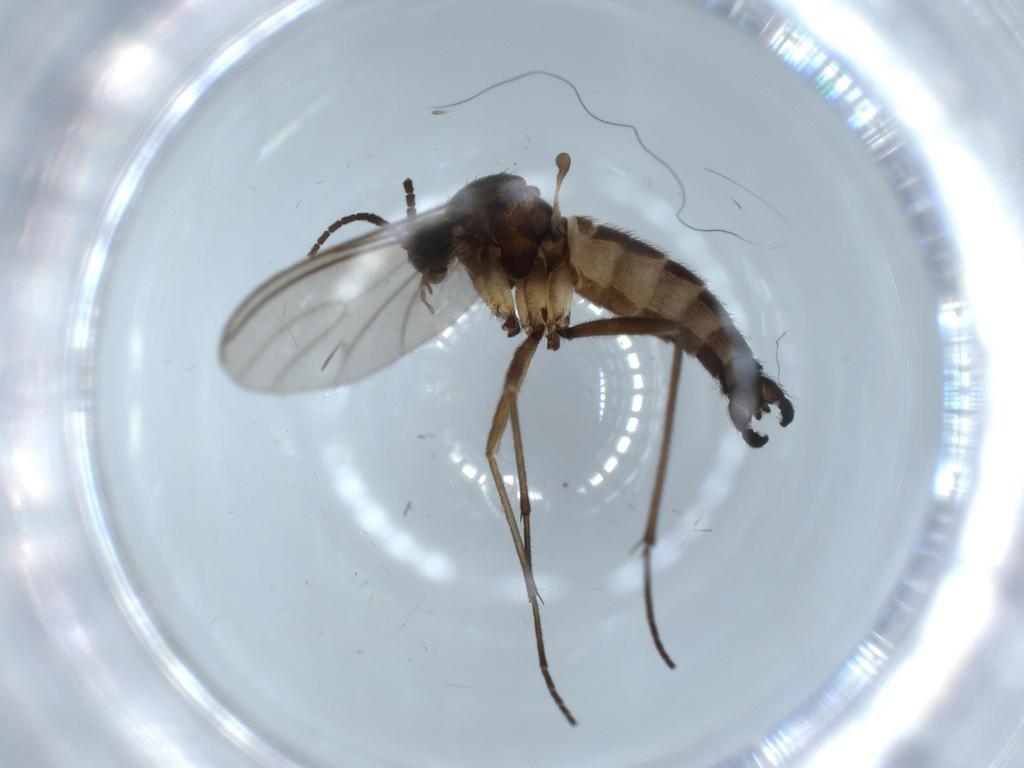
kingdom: Animalia
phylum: Arthropoda
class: Insecta
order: Diptera
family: Sciaridae
